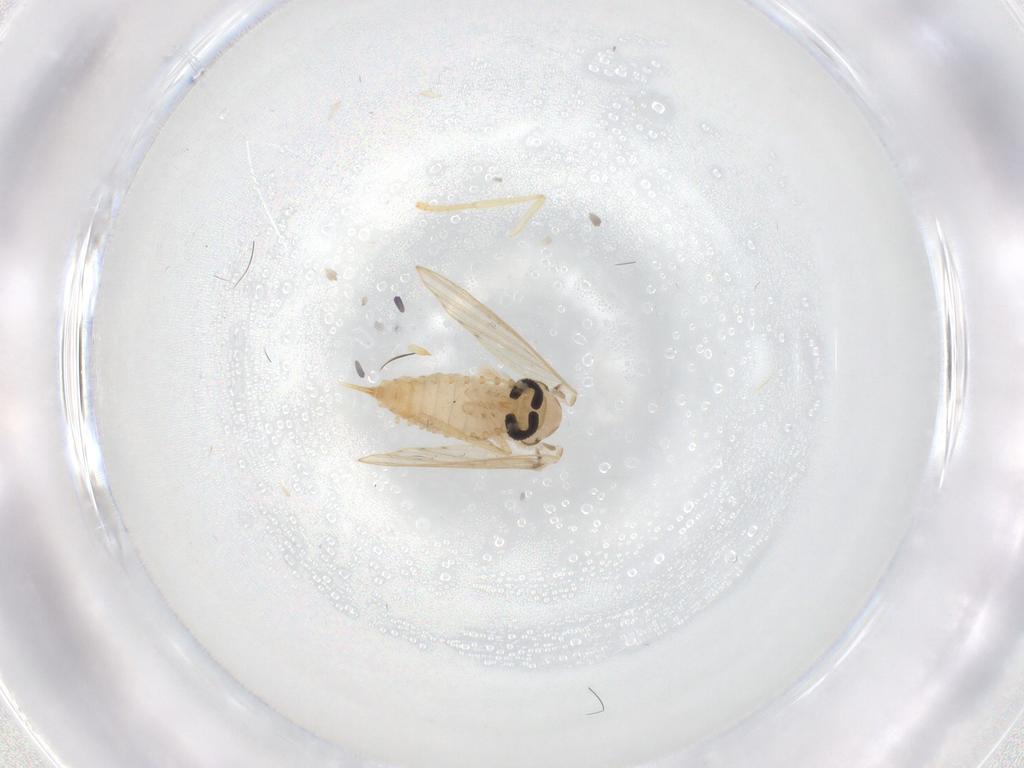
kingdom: Animalia
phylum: Arthropoda
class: Insecta
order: Diptera
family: Psychodidae
